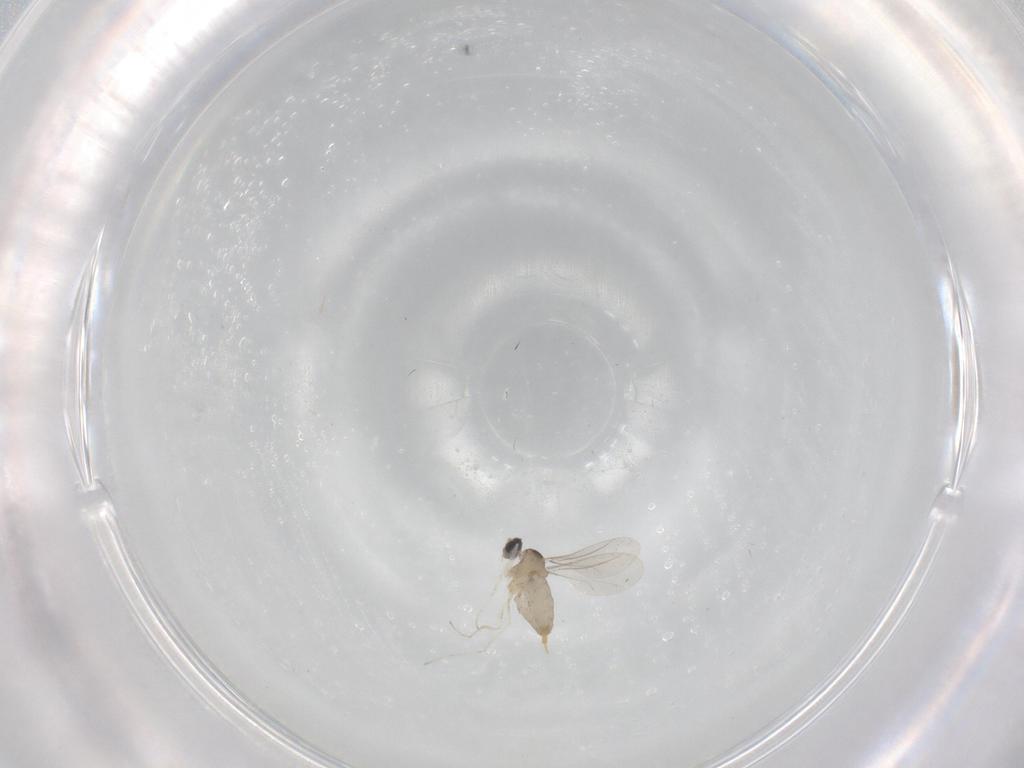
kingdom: Animalia
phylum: Arthropoda
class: Insecta
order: Diptera
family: Cecidomyiidae
